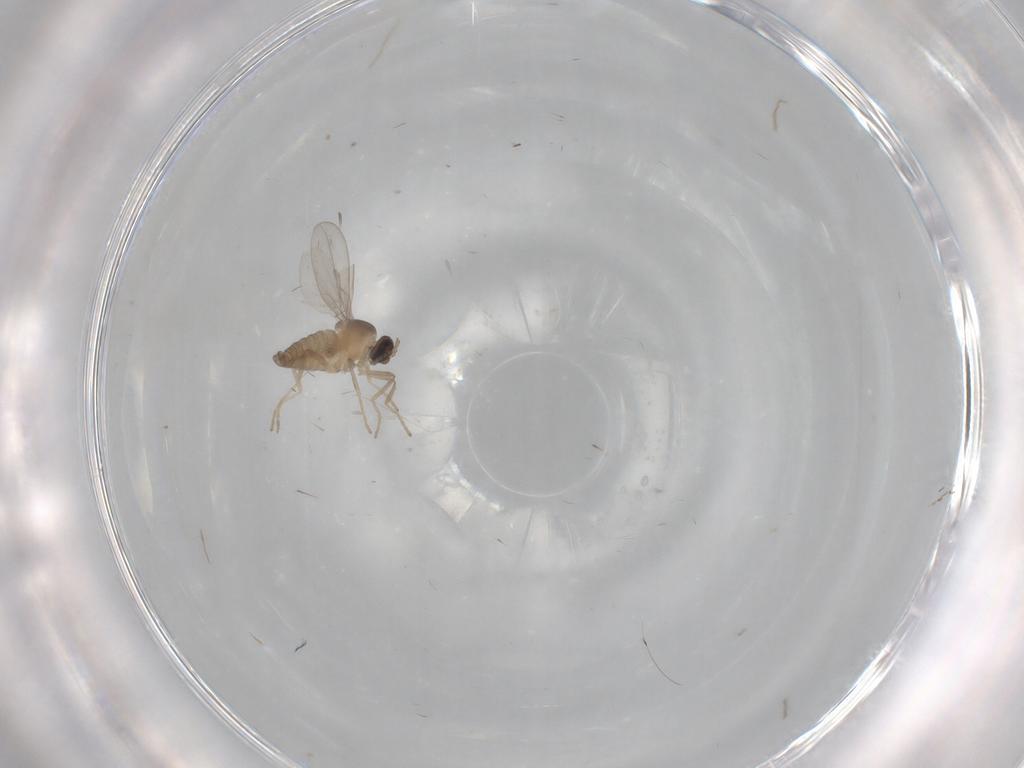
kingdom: Animalia
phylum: Arthropoda
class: Insecta
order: Diptera
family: Cecidomyiidae
